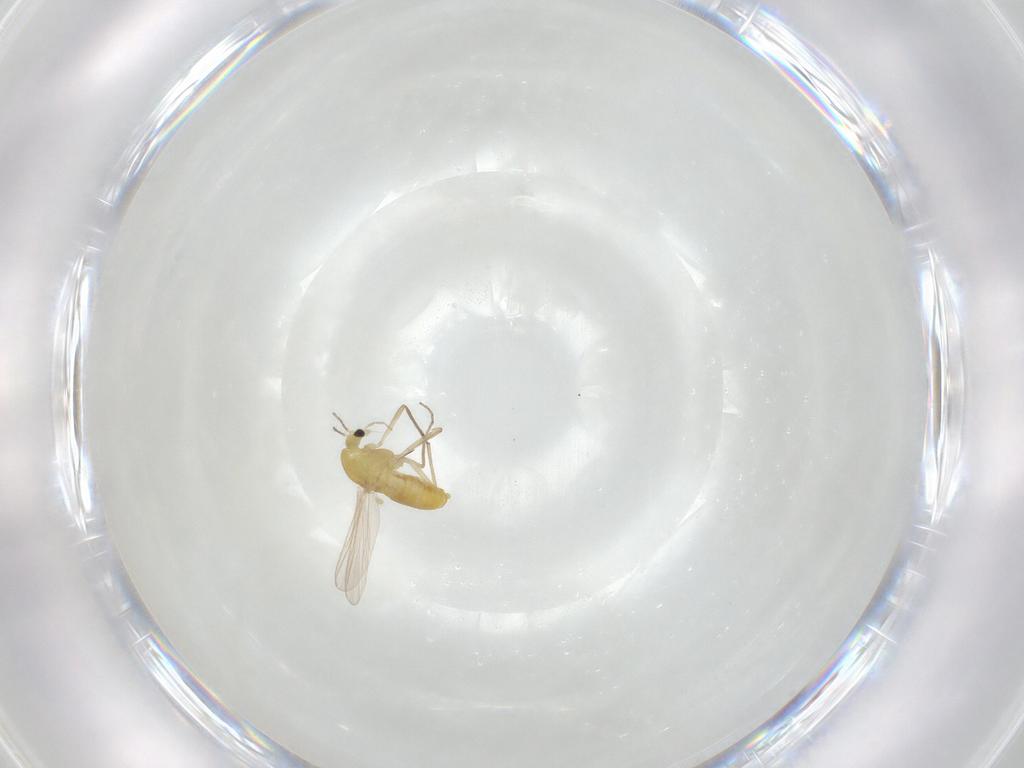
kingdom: Animalia
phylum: Arthropoda
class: Insecta
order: Diptera
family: Chironomidae
